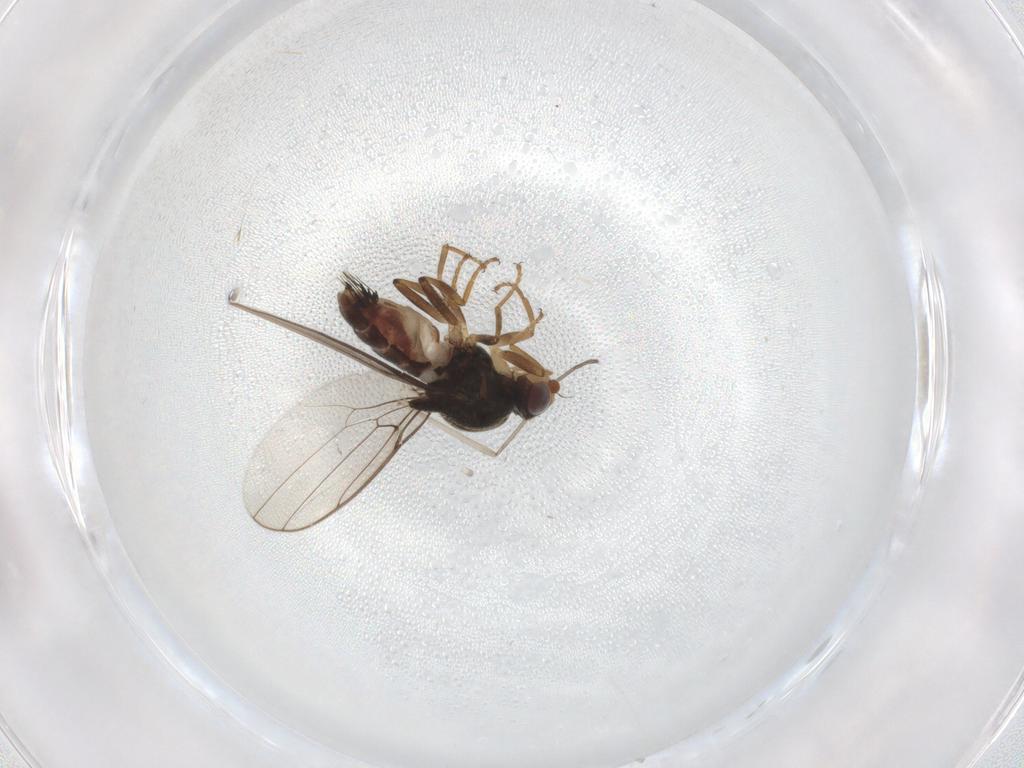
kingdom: Animalia
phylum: Arthropoda
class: Insecta
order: Diptera
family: Chloropidae
